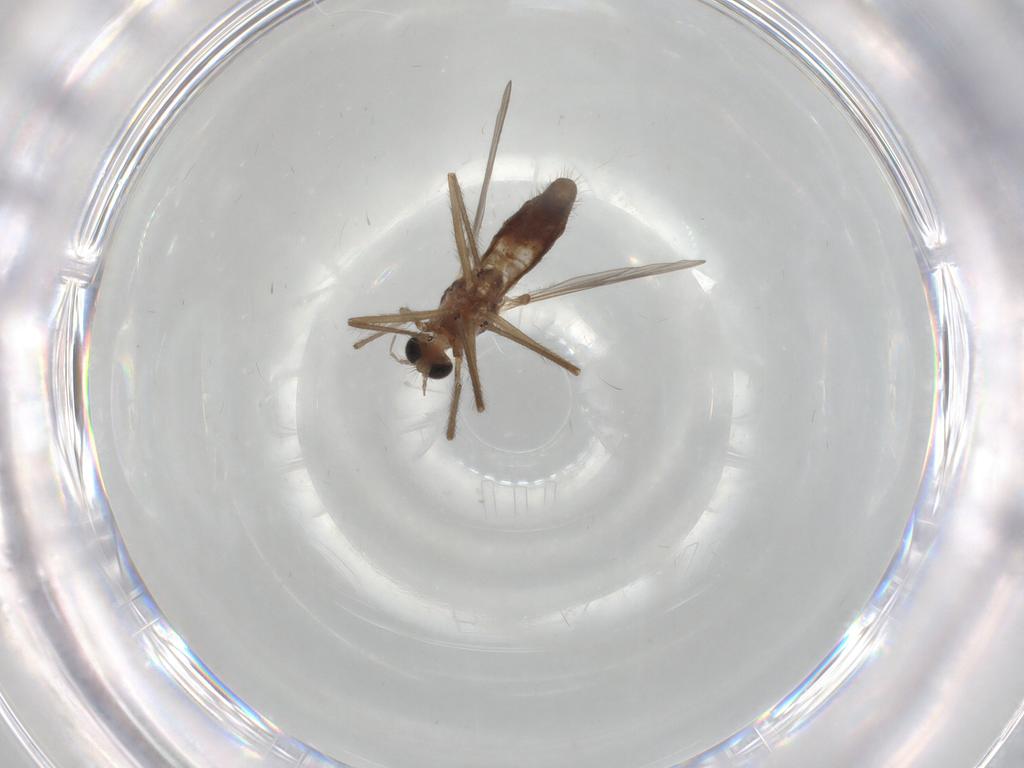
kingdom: Animalia
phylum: Arthropoda
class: Insecta
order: Diptera
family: Chironomidae
